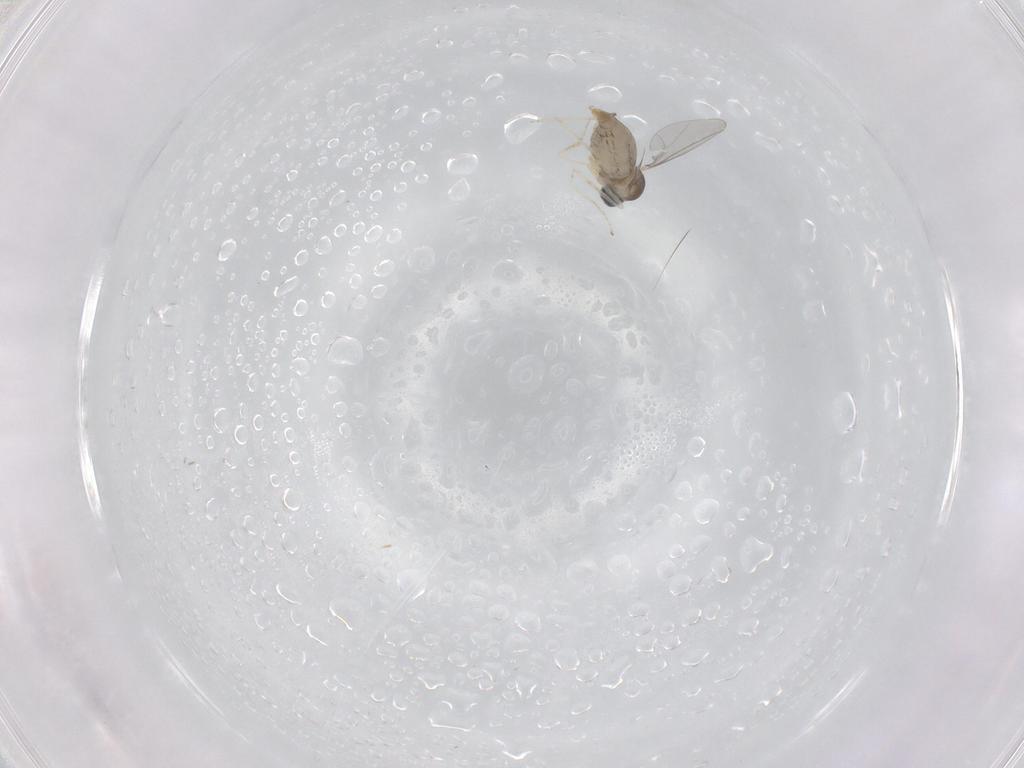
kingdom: Animalia
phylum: Arthropoda
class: Insecta
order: Diptera
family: Cecidomyiidae
